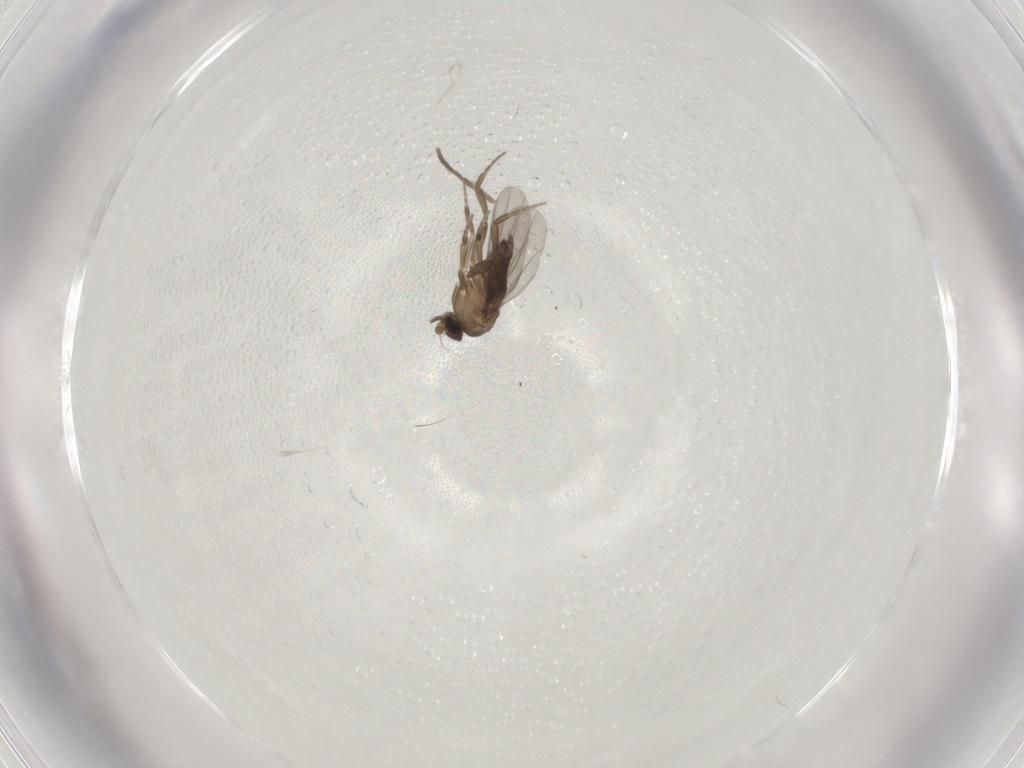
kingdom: Animalia
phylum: Arthropoda
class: Insecta
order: Diptera
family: Phoridae
